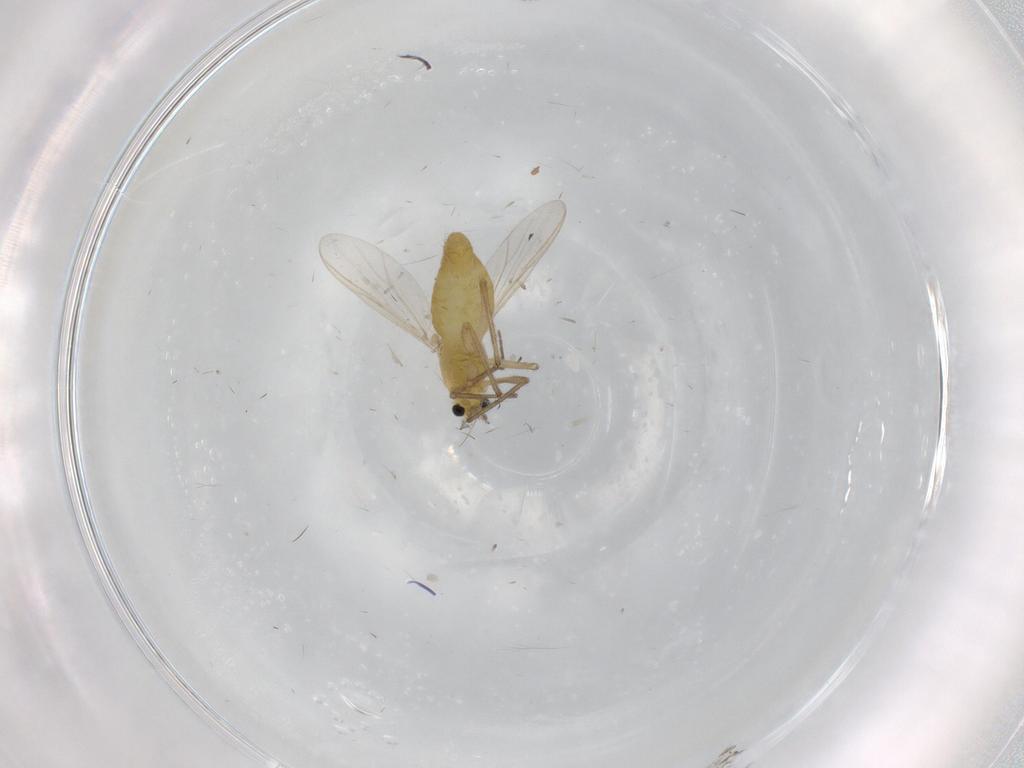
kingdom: Animalia
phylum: Arthropoda
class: Insecta
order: Diptera
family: Chironomidae
